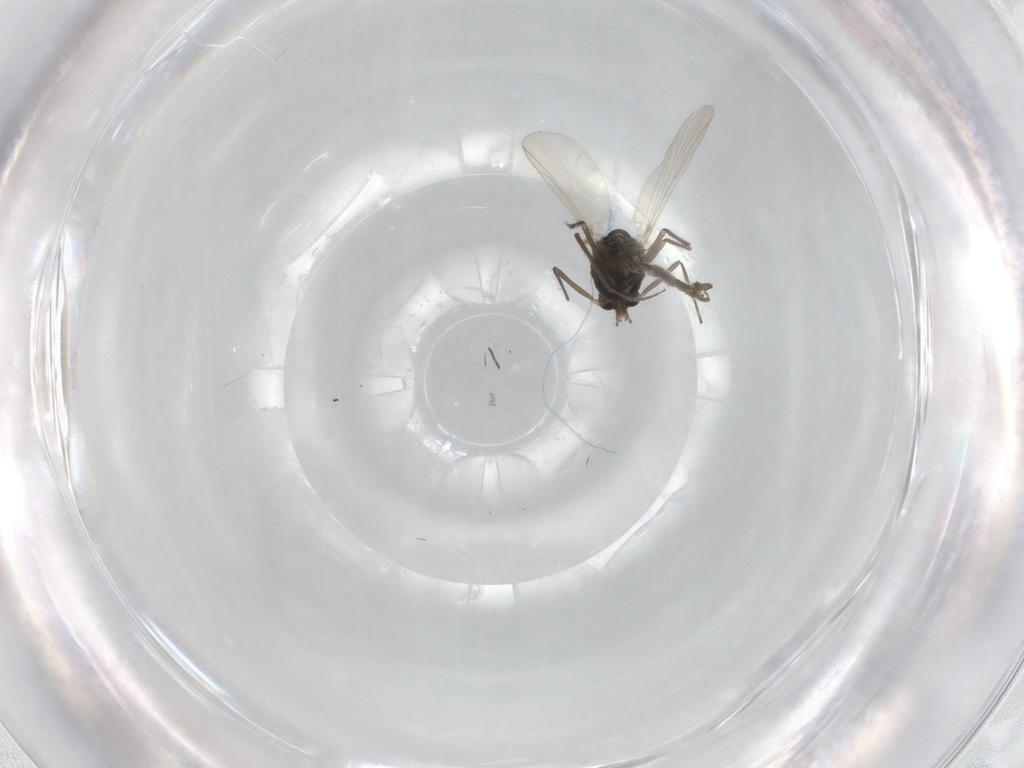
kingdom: Animalia
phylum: Arthropoda
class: Insecta
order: Diptera
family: Chironomidae
